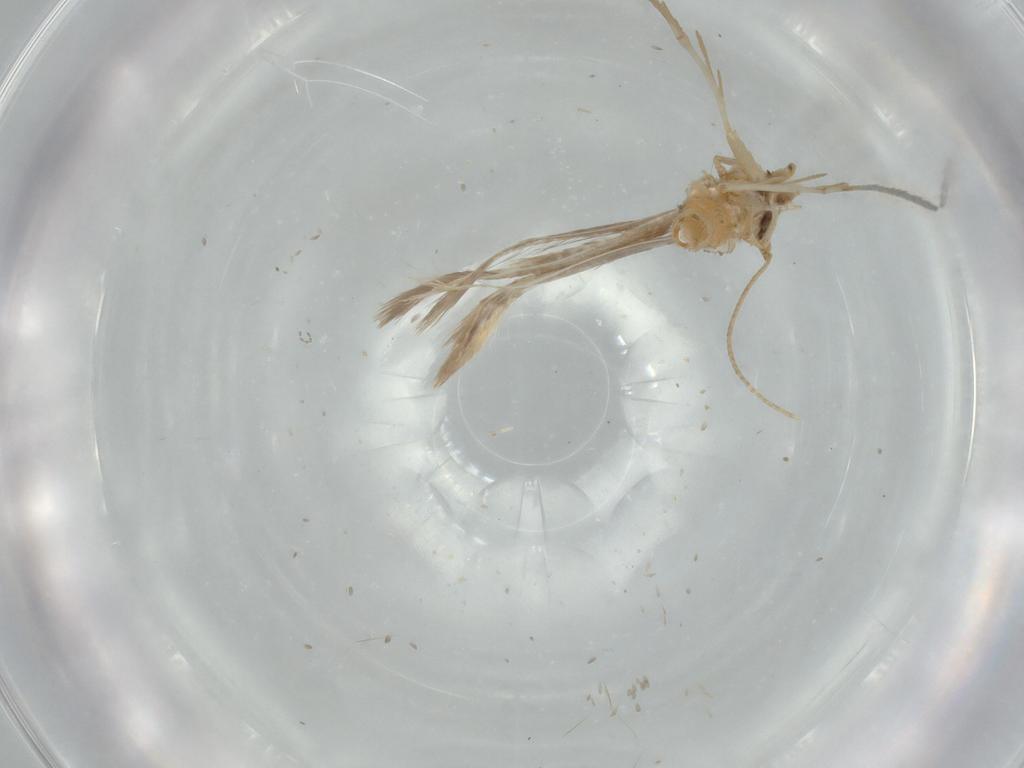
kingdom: Animalia
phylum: Arthropoda
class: Insecta
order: Lepidoptera
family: Tineidae
